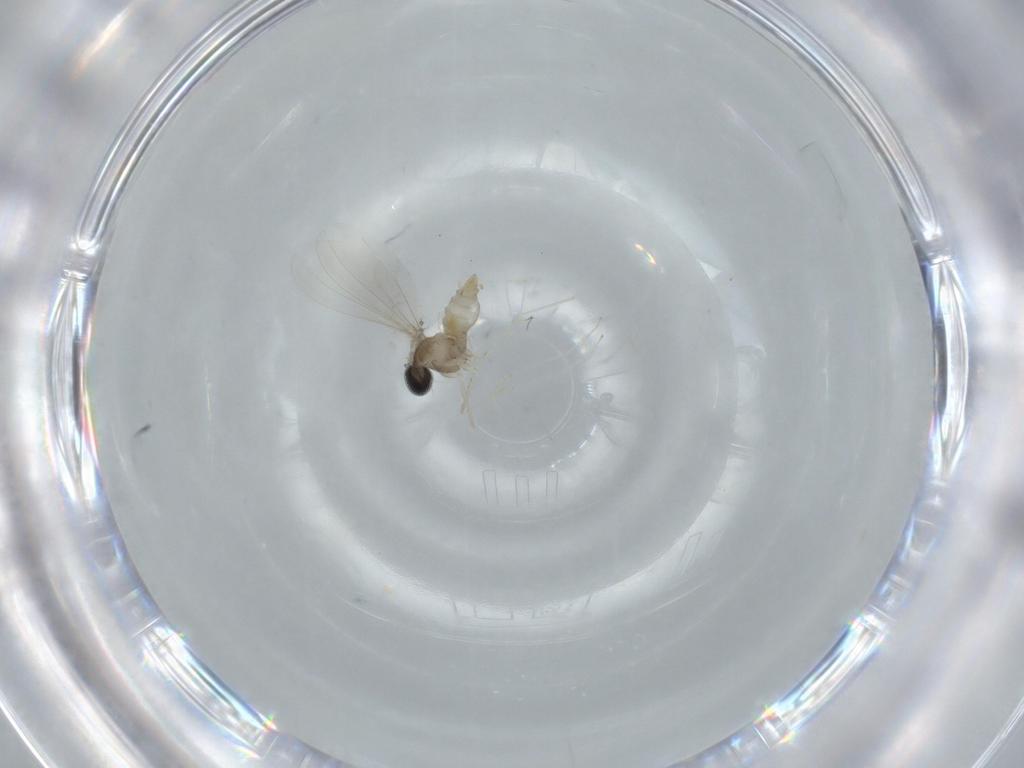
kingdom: Animalia
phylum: Arthropoda
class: Insecta
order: Diptera
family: Cecidomyiidae
